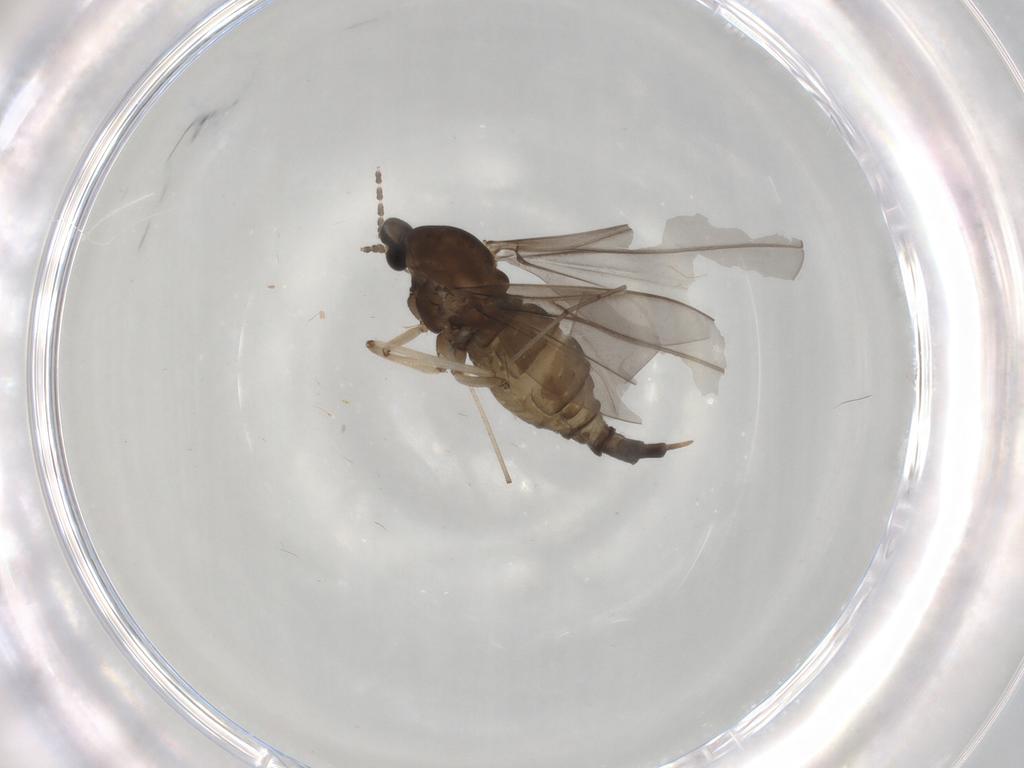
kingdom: Animalia
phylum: Arthropoda
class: Insecta
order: Diptera
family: Cecidomyiidae
